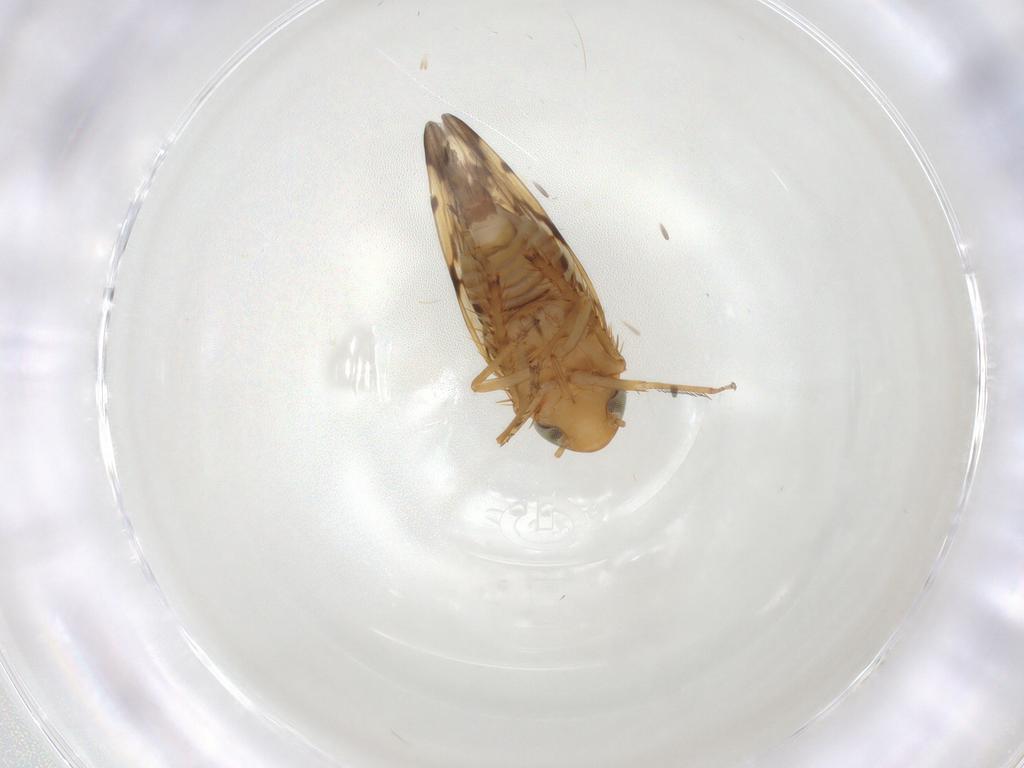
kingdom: Animalia
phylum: Arthropoda
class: Insecta
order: Hemiptera
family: Cicadellidae
